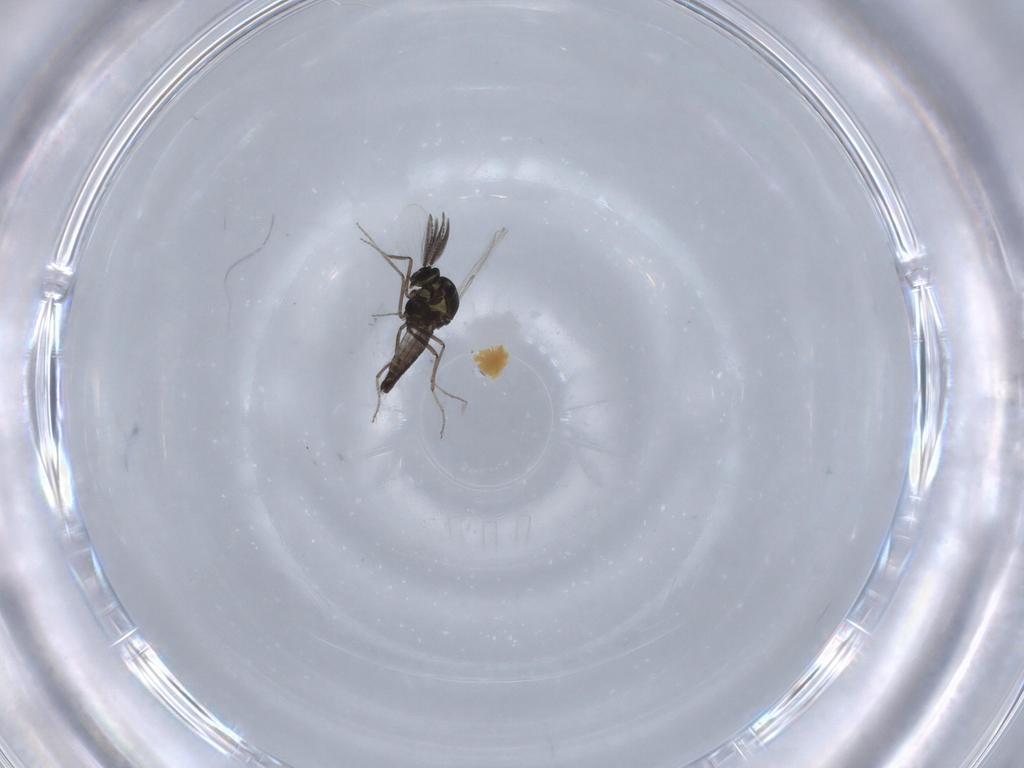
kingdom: Animalia
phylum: Arthropoda
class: Insecta
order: Diptera
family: Ceratopogonidae
